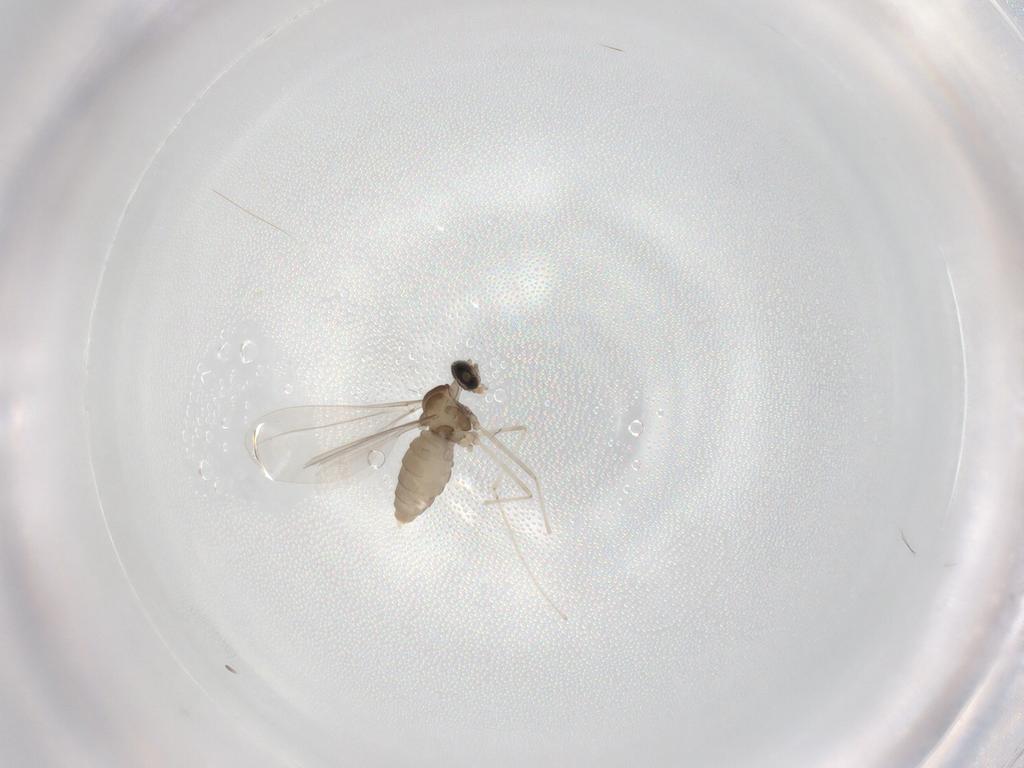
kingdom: Animalia
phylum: Arthropoda
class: Insecta
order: Diptera
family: Cecidomyiidae
